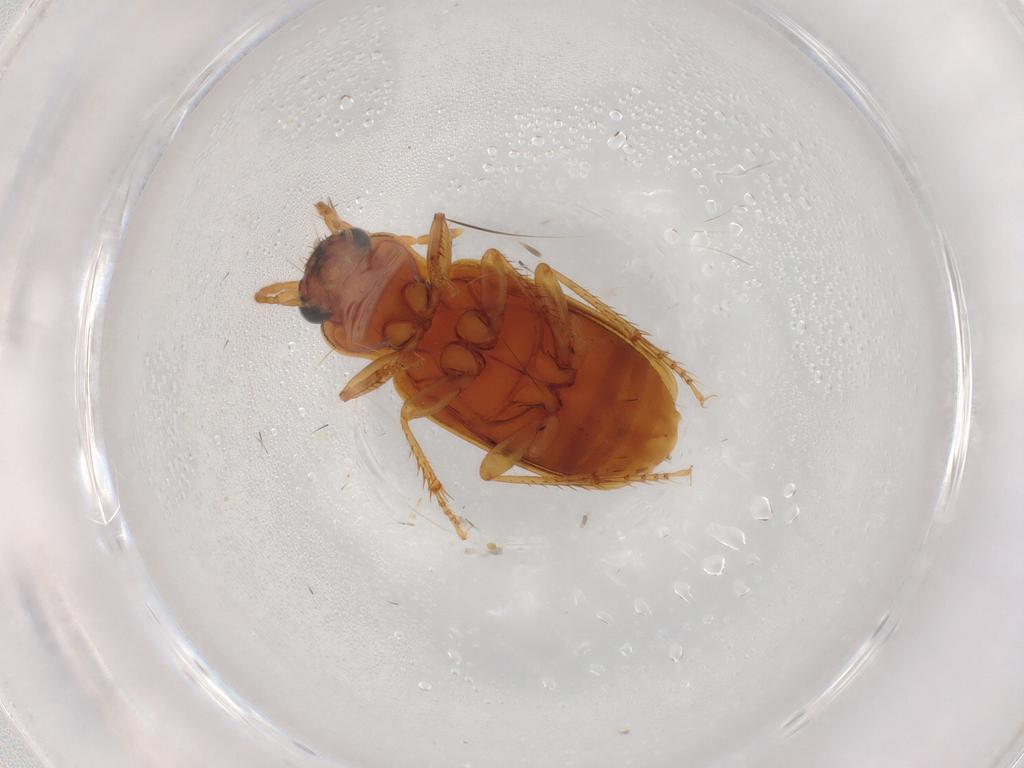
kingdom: Animalia
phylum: Arthropoda
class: Insecta
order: Coleoptera
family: Carabidae
